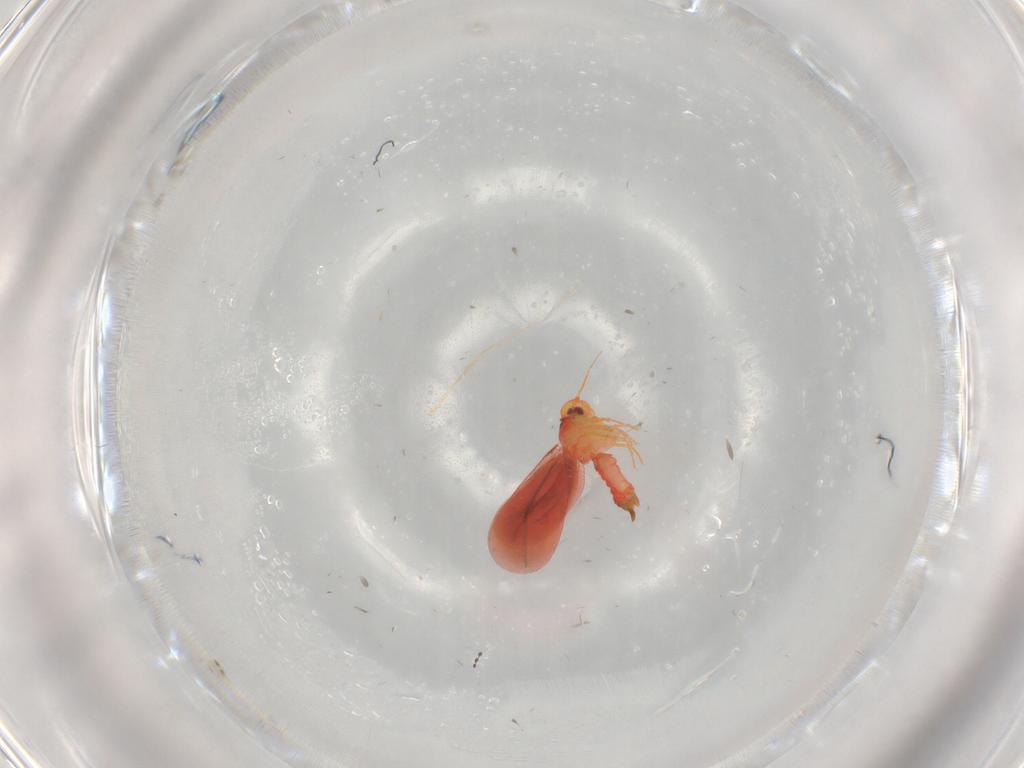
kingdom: Animalia
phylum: Arthropoda
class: Insecta
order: Hemiptera
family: Aleyrodidae
